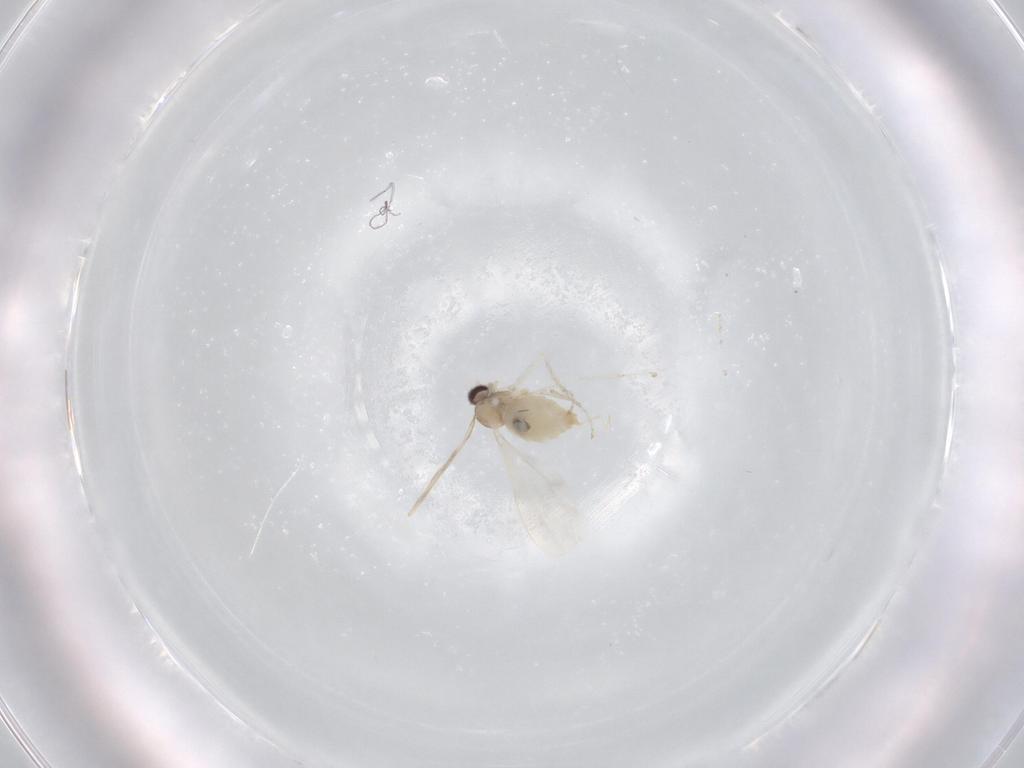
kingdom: Animalia
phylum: Arthropoda
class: Insecta
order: Diptera
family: Cecidomyiidae
